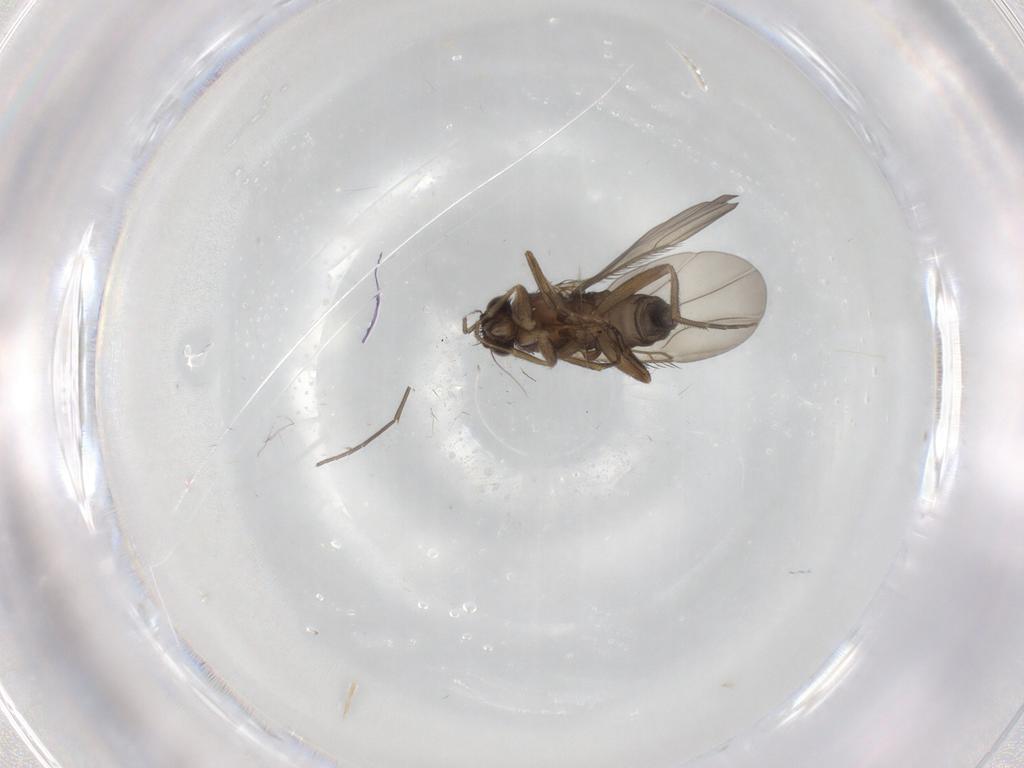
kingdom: Animalia
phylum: Arthropoda
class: Insecta
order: Diptera
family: Phoridae
